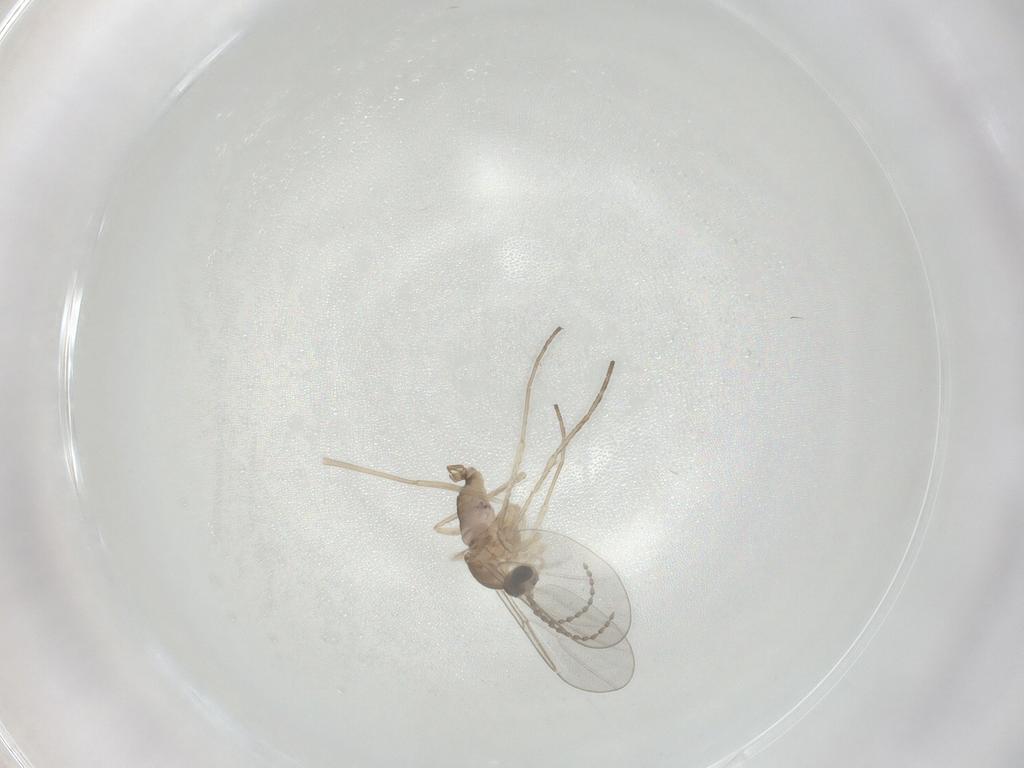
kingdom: Animalia
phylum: Arthropoda
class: Insecta
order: Diptera
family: Cecidomyiidae
